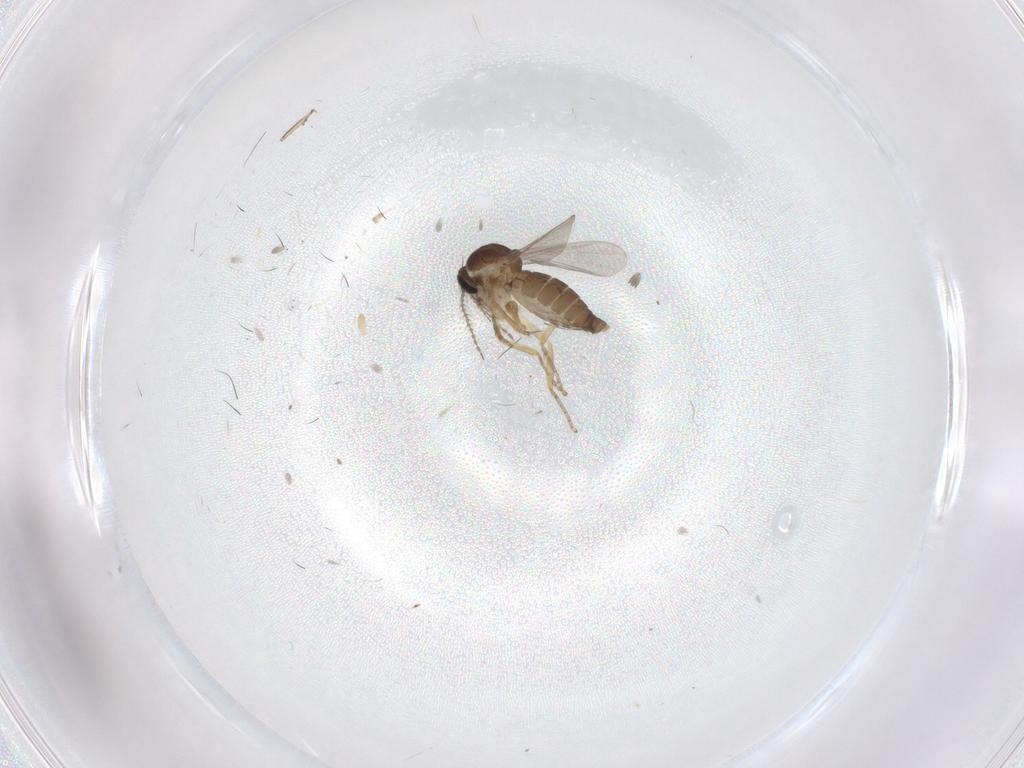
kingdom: Animalia
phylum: Arthropoda
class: Insecta
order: Diptera
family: Ceratopogonidae
